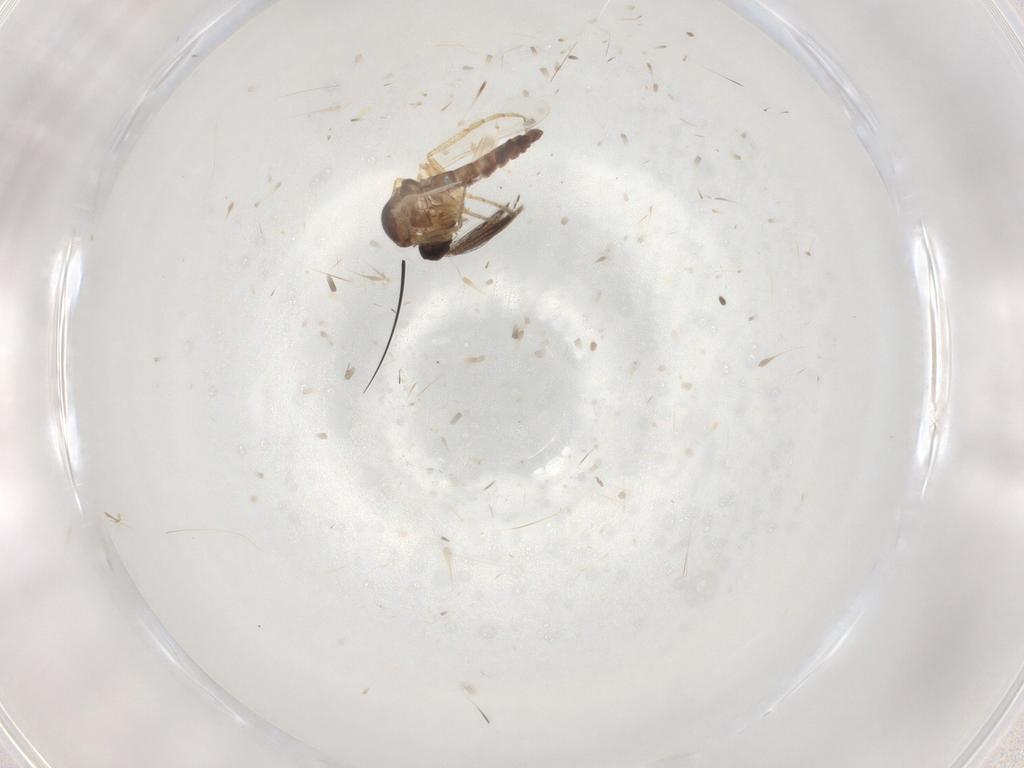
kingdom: Animalia
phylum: Arthropoda
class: Insecta
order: Diptera
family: Ceratopogonidae
